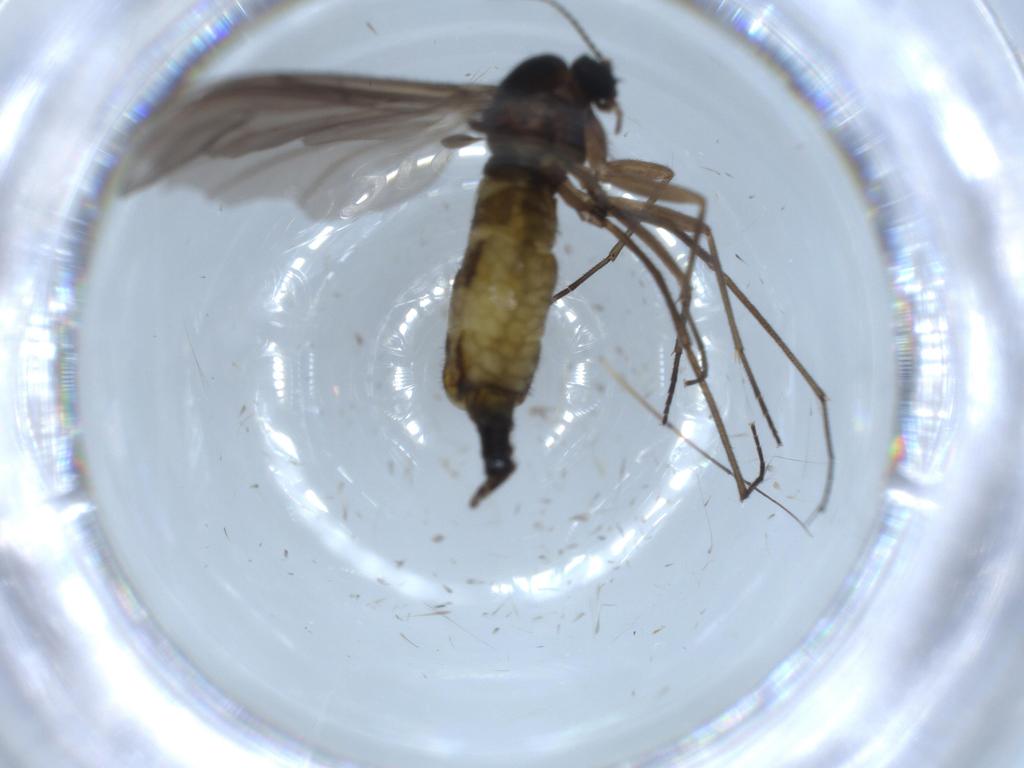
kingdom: Animalia
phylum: Arthropoda
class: Insecta
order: Diptera
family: Sciaridae
